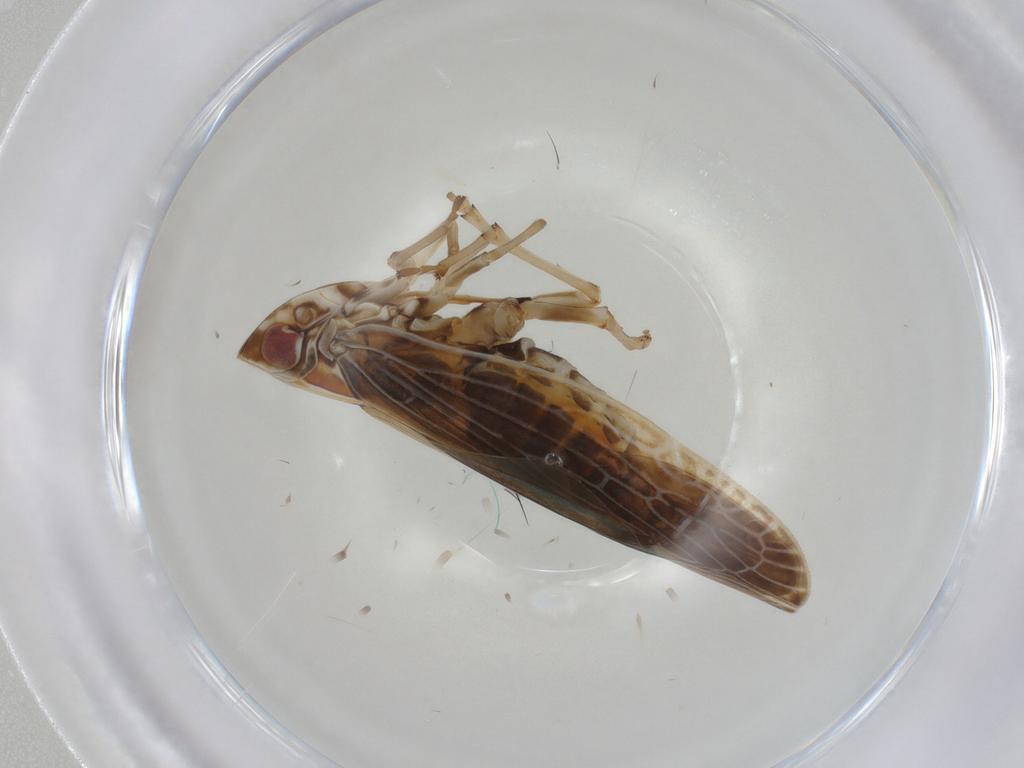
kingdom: Animalia
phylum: Arthropoda
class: Insecta
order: Hemiptera
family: Achilidae
